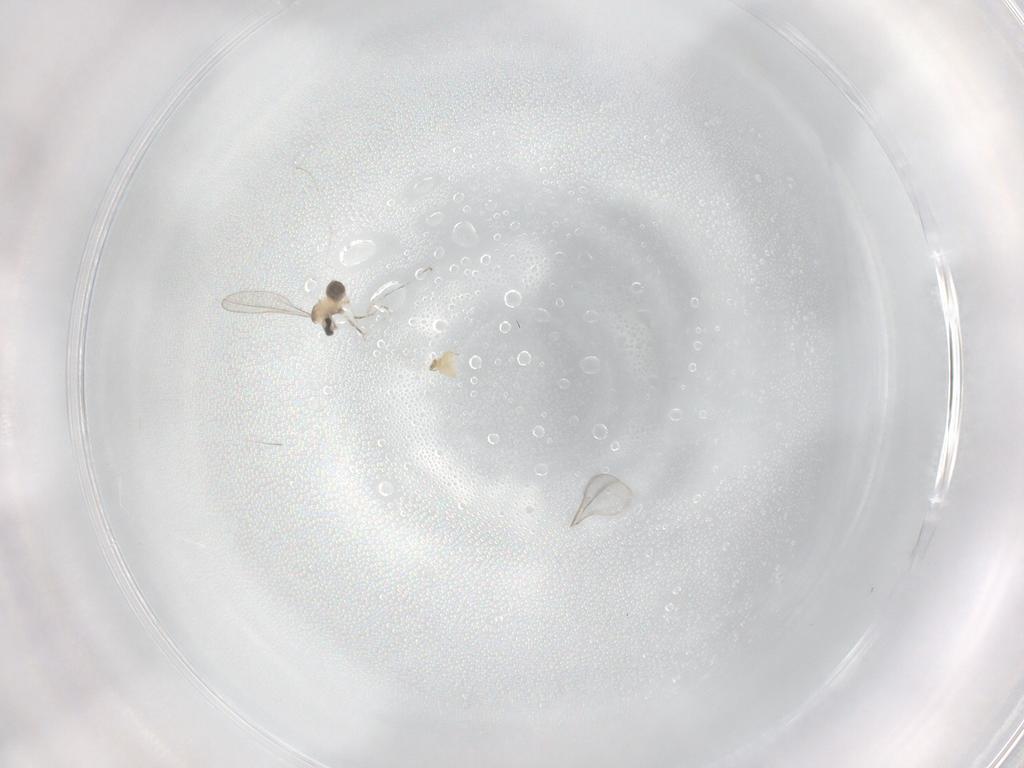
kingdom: Animalia
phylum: Arthropoda
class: Insecta
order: Diptera
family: Cecidomyiidae
